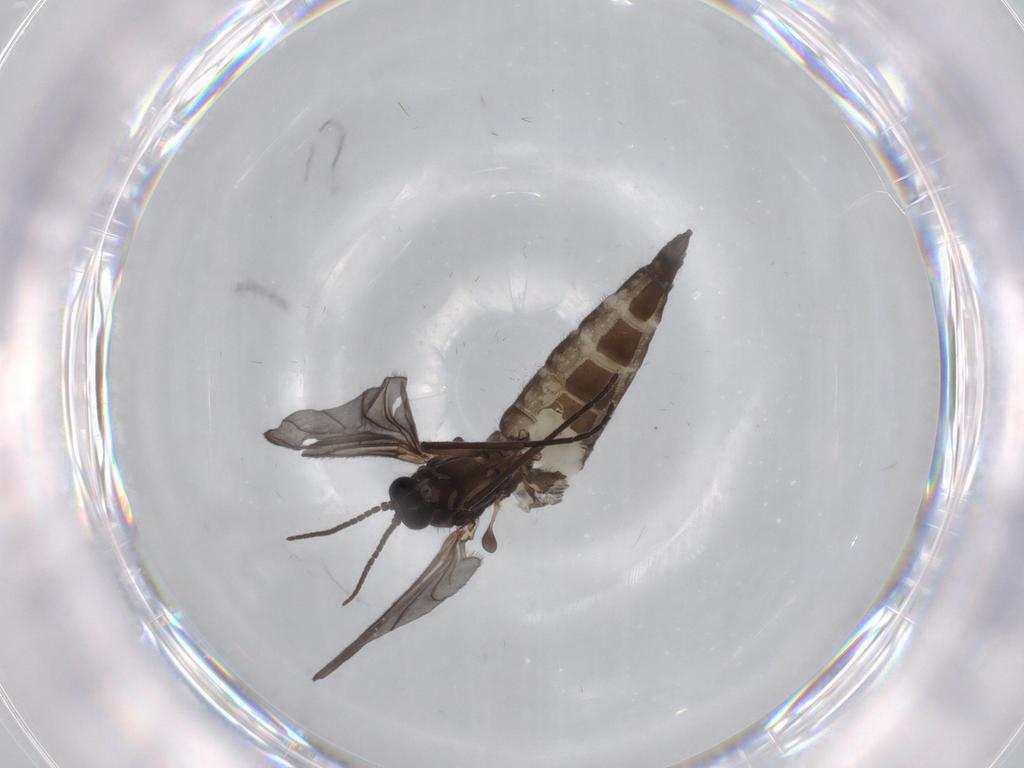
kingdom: Animalia
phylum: Arthropoda
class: Insecta
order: Diptera
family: Sciaridae
